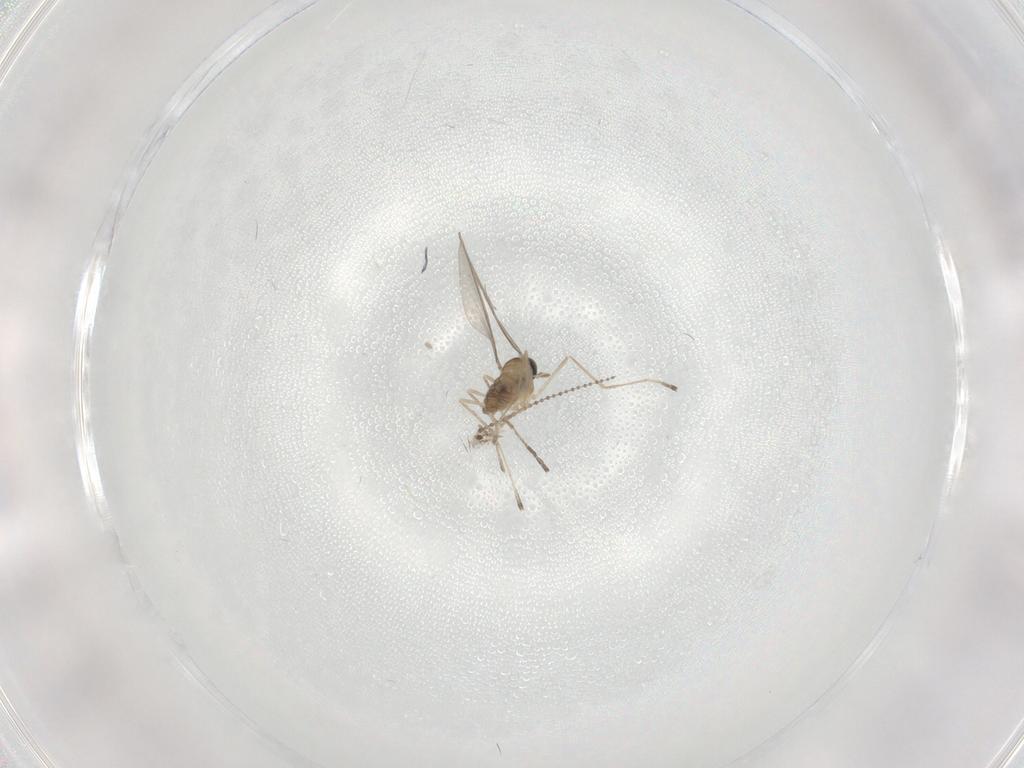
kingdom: Animalia
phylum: Arthropoda
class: Insecta
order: Diptera
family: Cecidomyiidae
